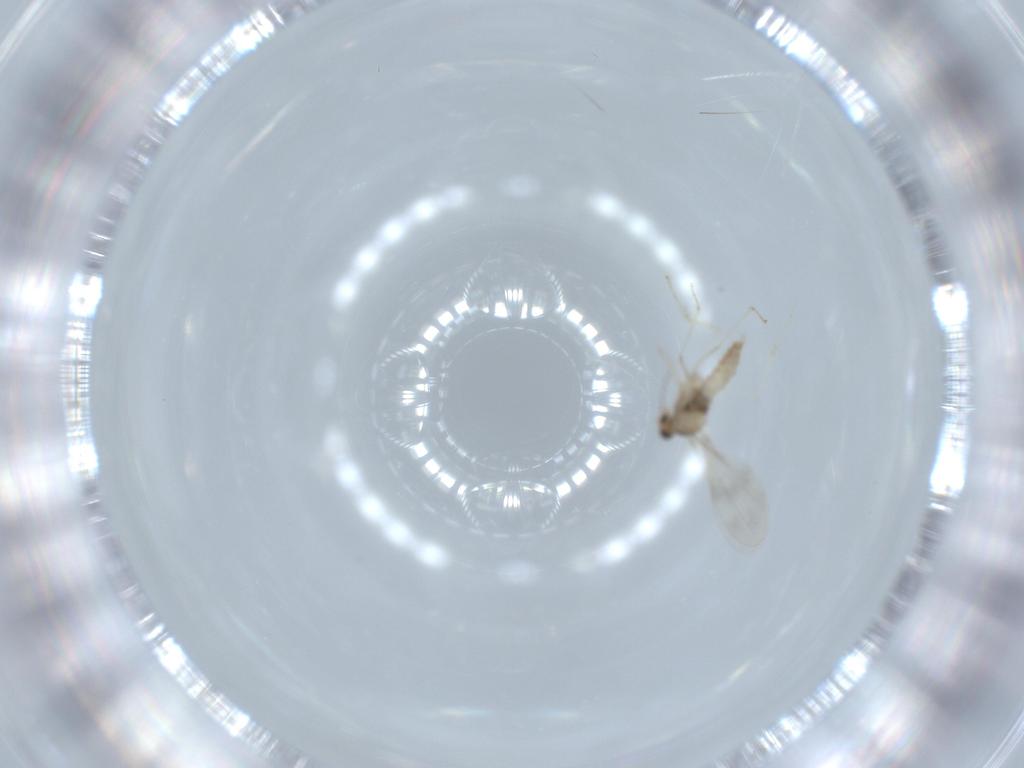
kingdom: Animalia
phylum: Arthropoda
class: Insecta
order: Diptera
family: Cecidomyiidae
